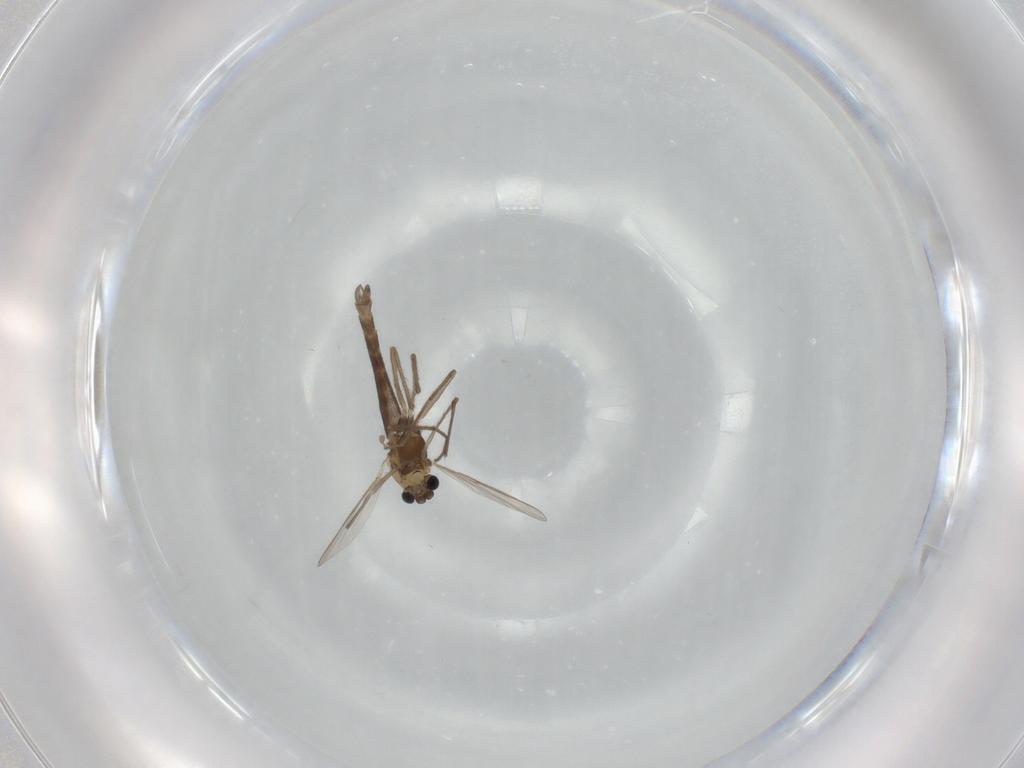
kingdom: Animalia
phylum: Arthropoda
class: Insecta
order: Diptera
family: Chironomidae
